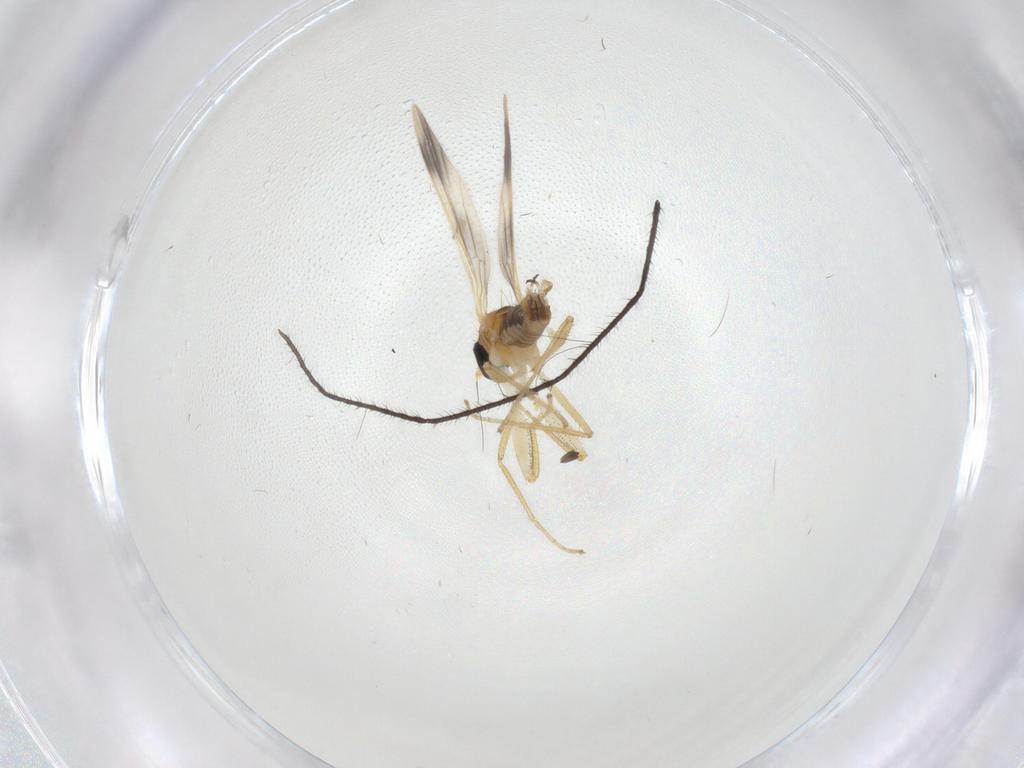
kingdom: Animalia
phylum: Arthropoda
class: Insecta
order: Diptera
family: Empididae
